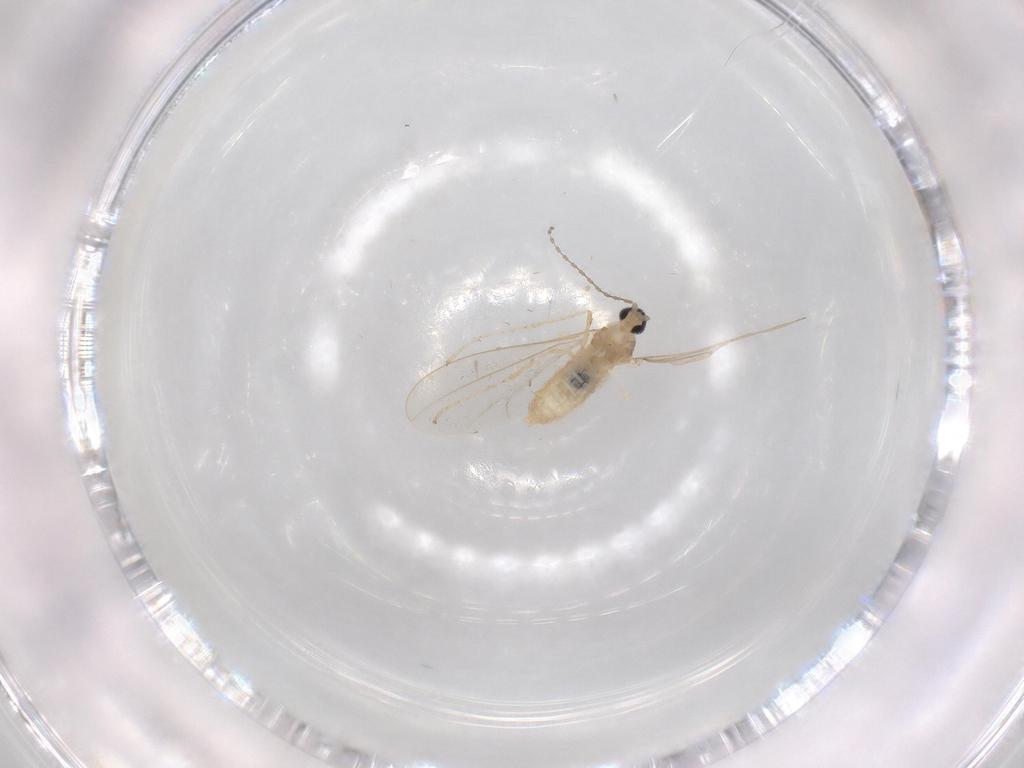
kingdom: Animalia
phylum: Arthropoda
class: Insecta
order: Diptera
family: Cecidomyiidae
